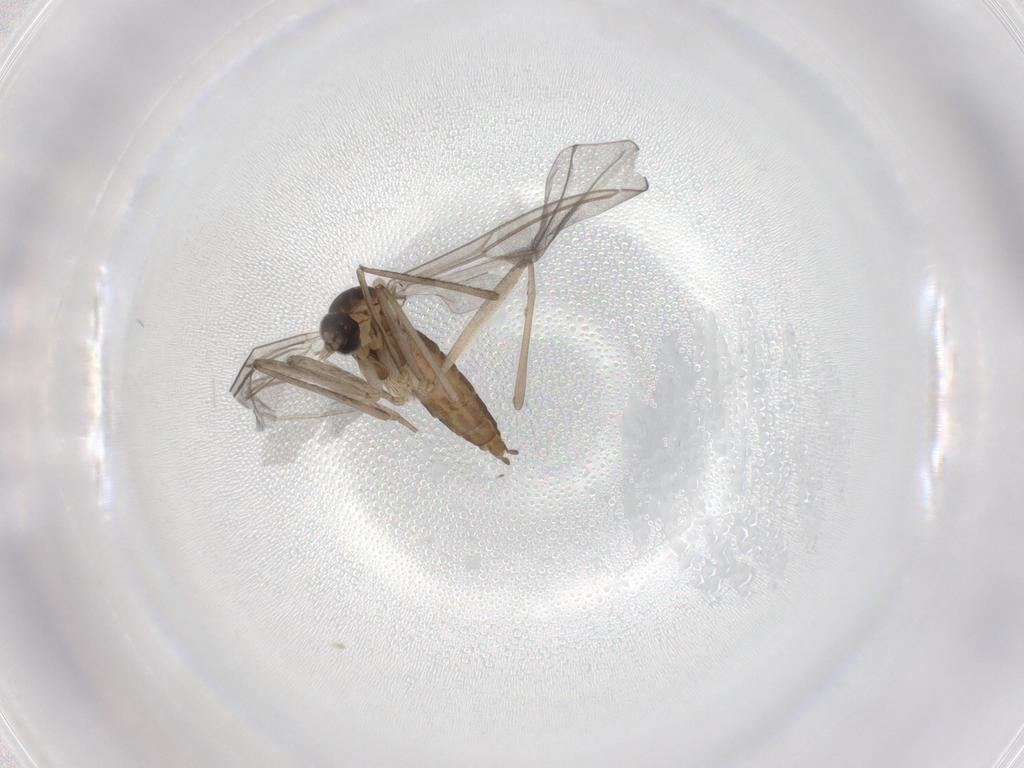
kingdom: Animalia
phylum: Arthropoda
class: Insecta
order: Diptera
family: Cecidomyiidae
